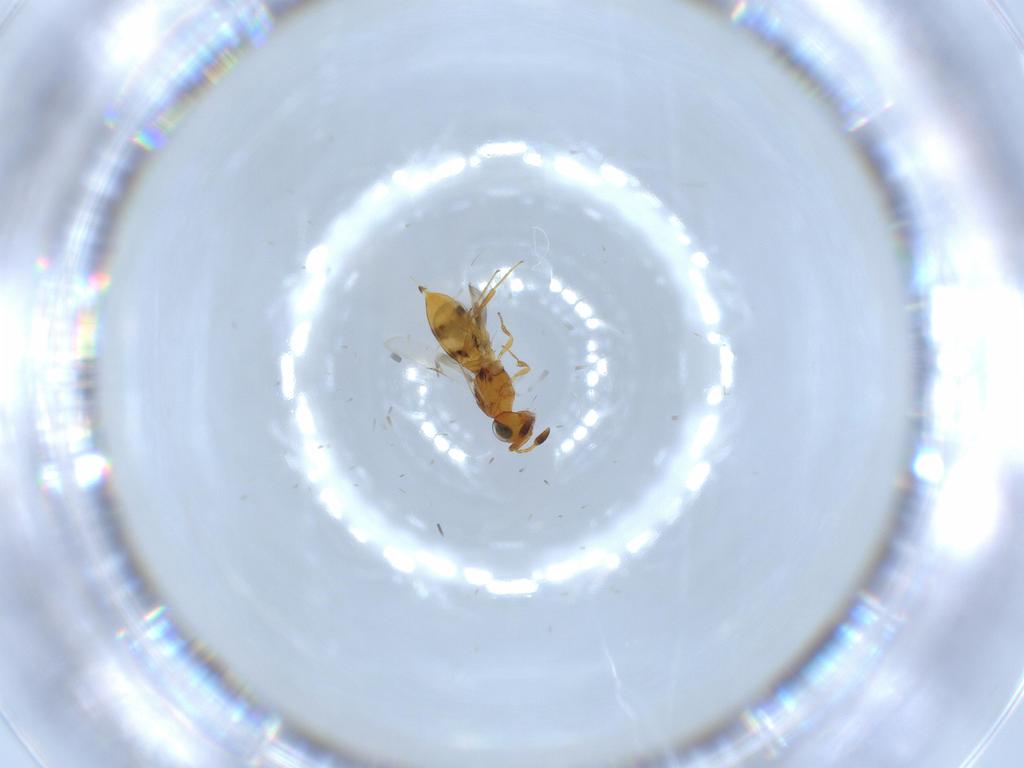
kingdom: Animalia
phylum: Arthropoda
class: Insecta
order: Hymenoptera
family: Scelionidae
